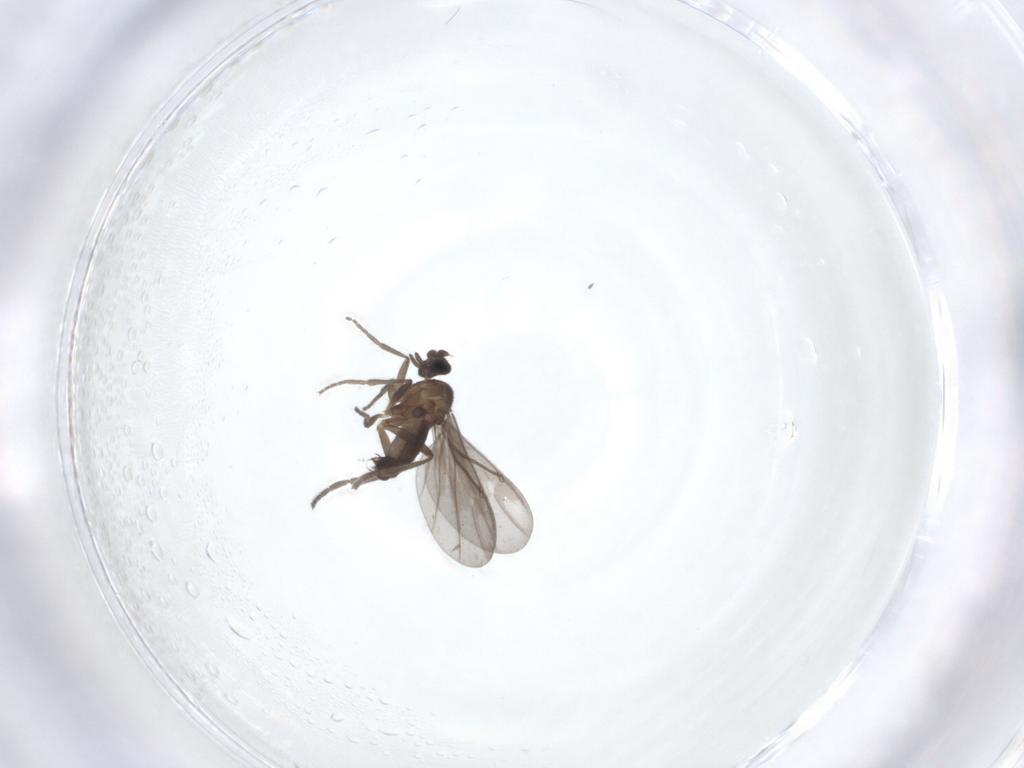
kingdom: Animalia
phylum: Arthropoda
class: Insecta
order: Diptera
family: Phoridae
